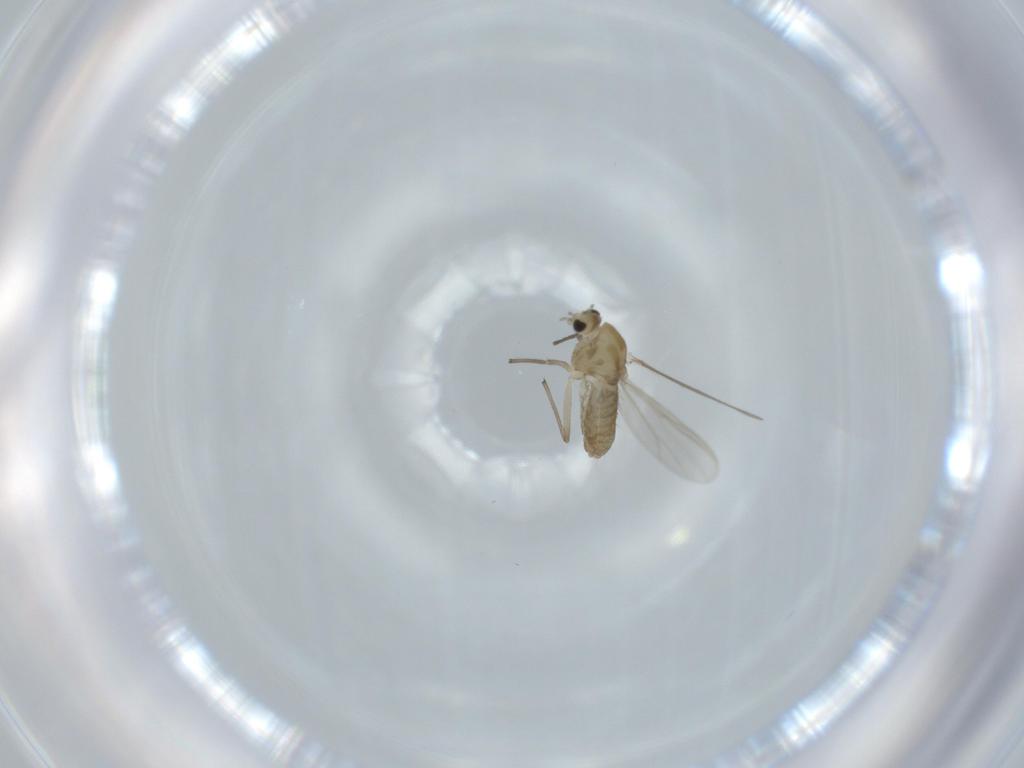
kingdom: Animalia
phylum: Arthropoda
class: Insecta
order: Diptera
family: Chironomidae
